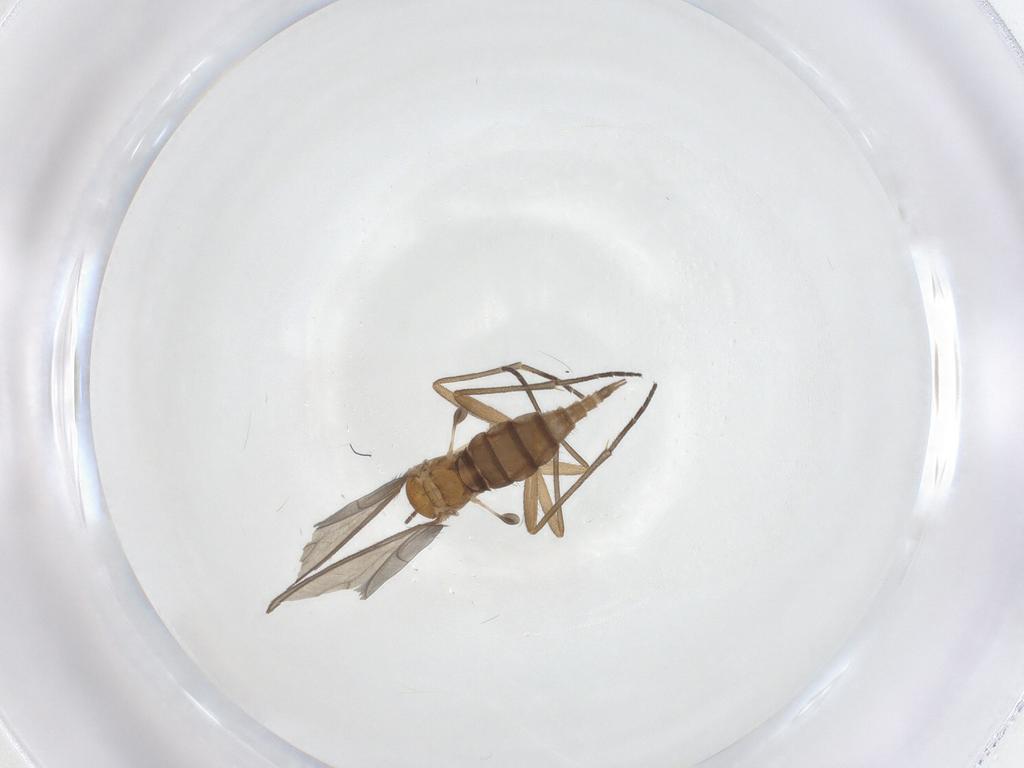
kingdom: Animalia
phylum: Arthropoda
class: Insecta
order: Diptera
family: Sciaridae
